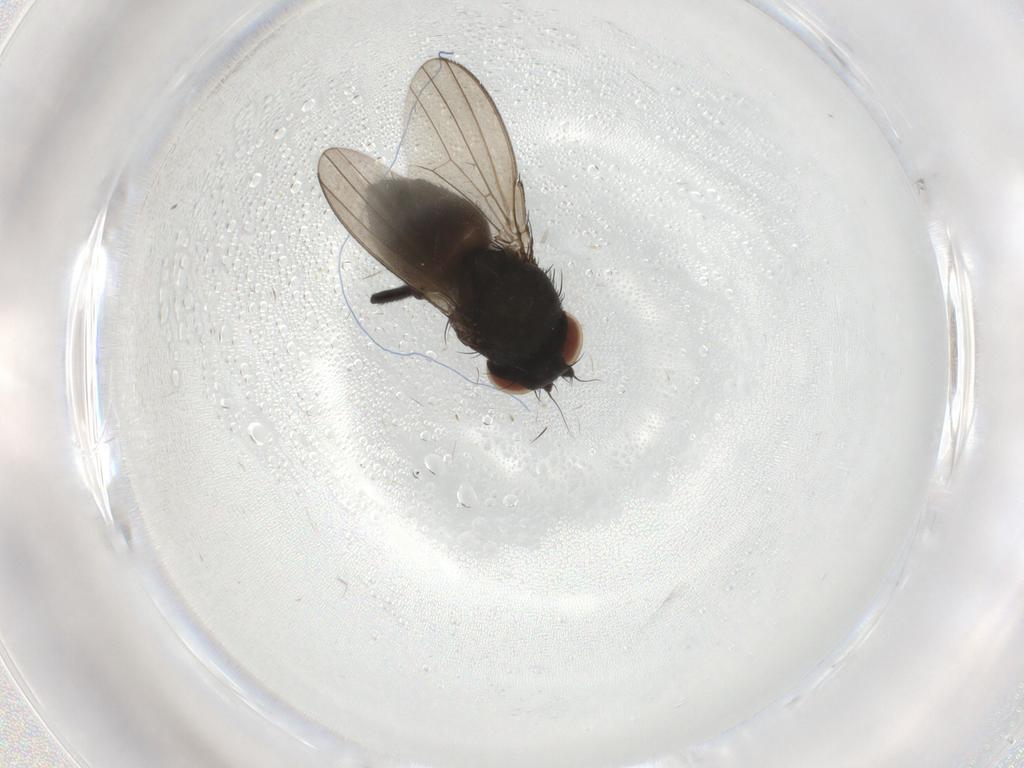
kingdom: Animalia
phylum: Arthropoda
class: Insecta
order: Diptera
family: Milichiidae
